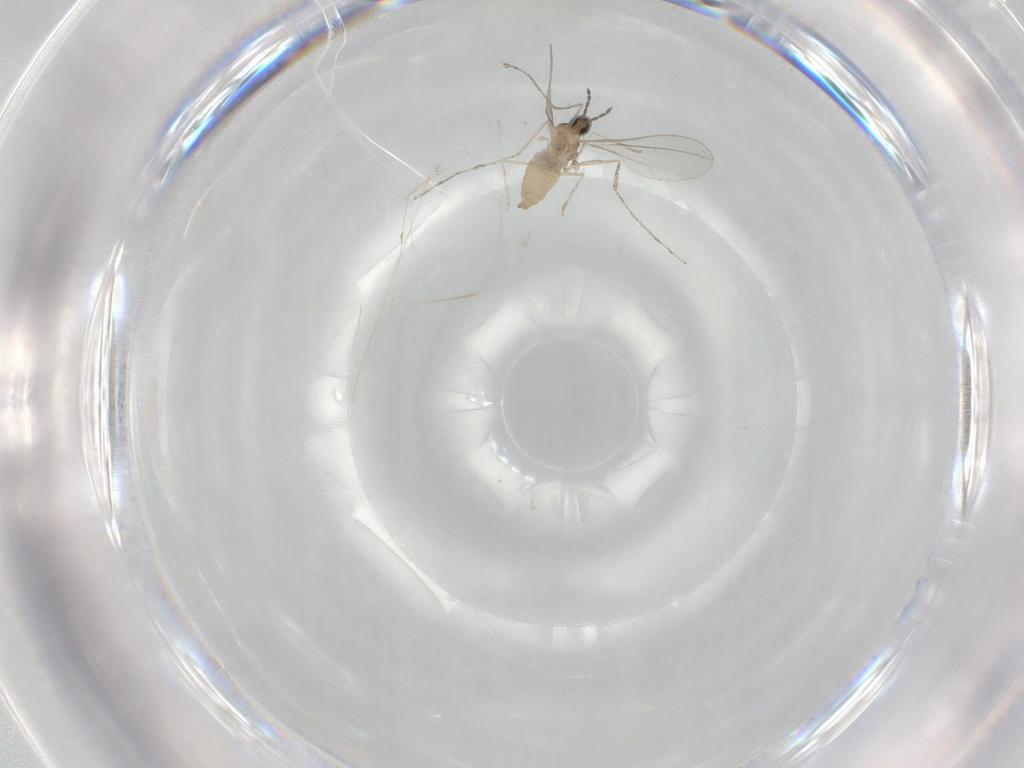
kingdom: Animalia
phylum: Arthropoda
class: Insecta
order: Diptera
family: Cecidomyiidae
